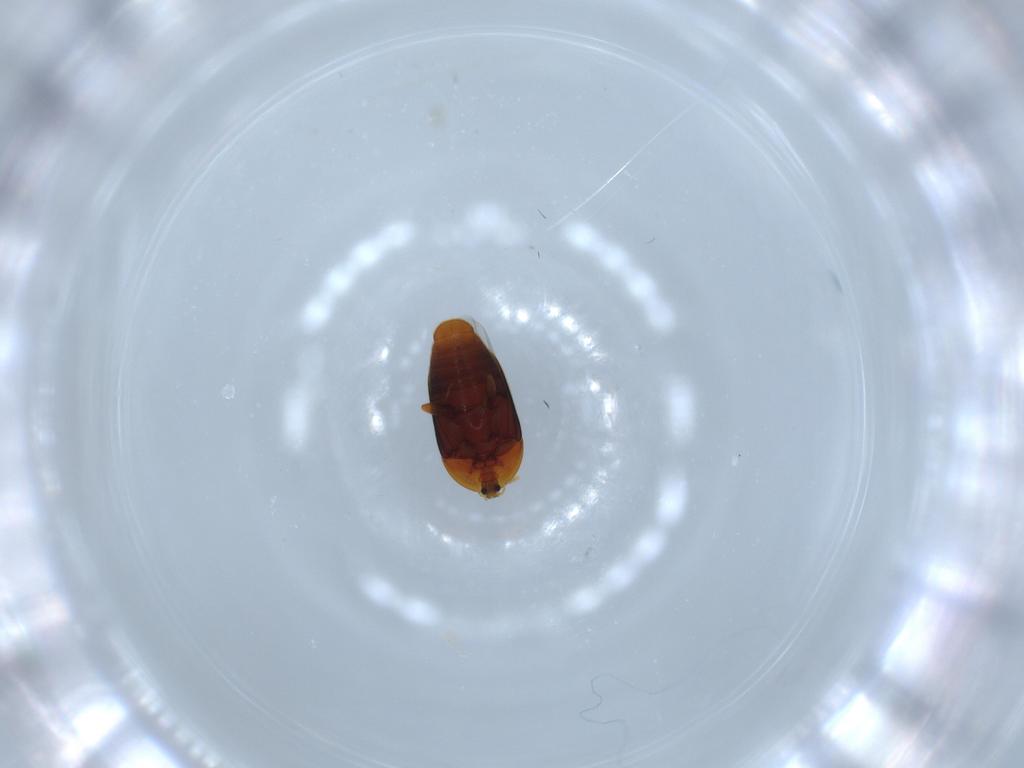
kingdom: Animalia
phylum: Arthropoda
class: Insecta
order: Coleoptera
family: Corylophidae
